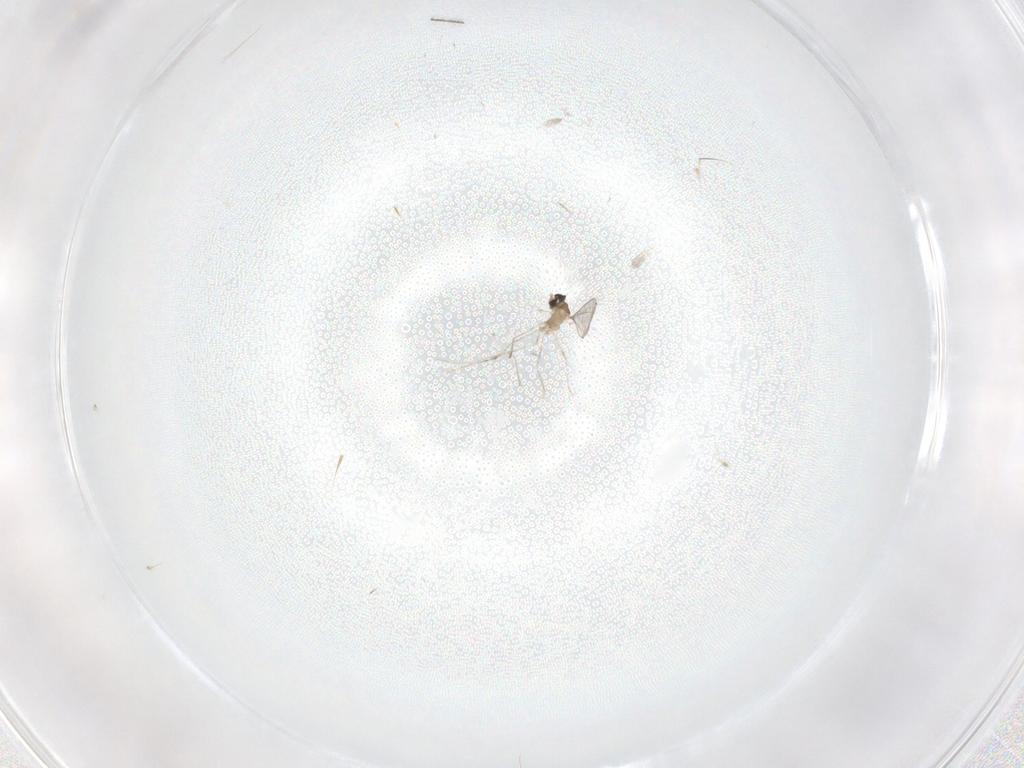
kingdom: Animalia
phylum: Arthropoda
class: Insecta
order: Diptera
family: Cecidomyiidae
